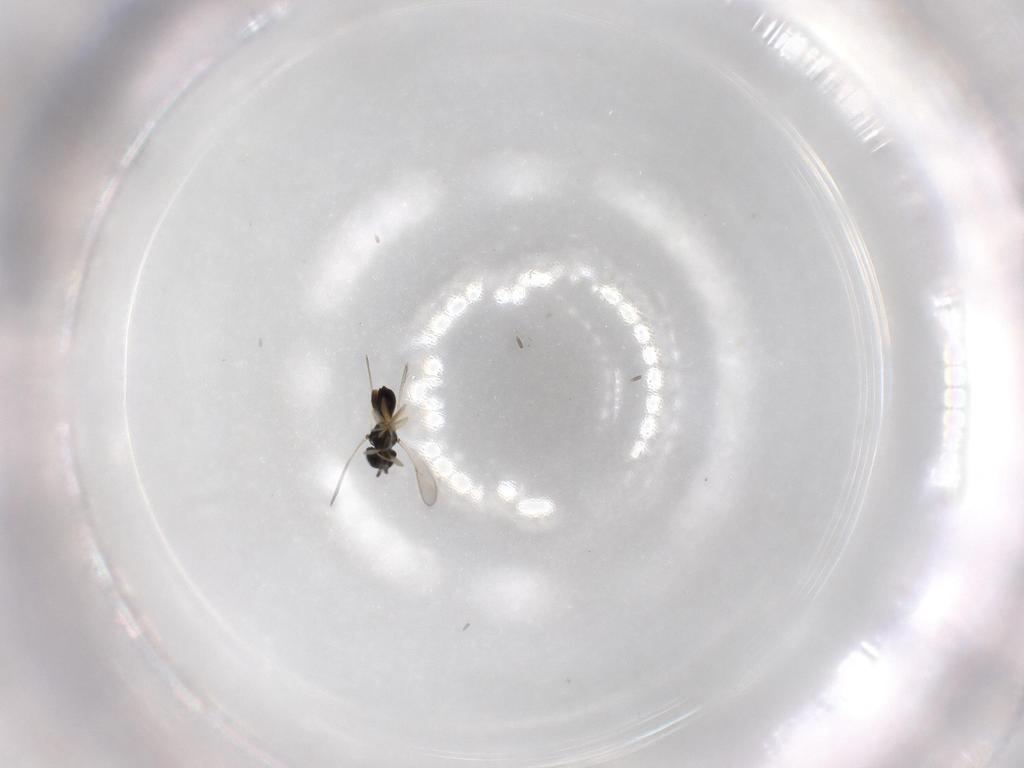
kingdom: Animalia
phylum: Arthropoda
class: Insecta
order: Hymenoptera
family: Scelionidae
